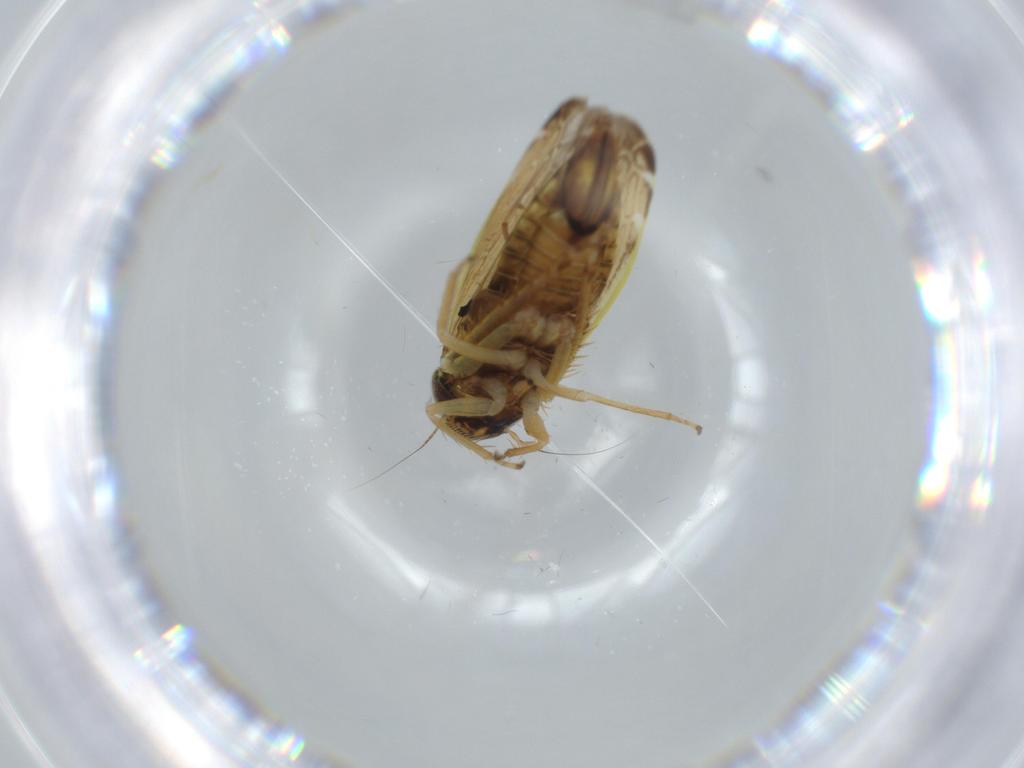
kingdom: Animalia
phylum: Arthropoda
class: Insecta
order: Hemiptera
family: Cicadellidae
